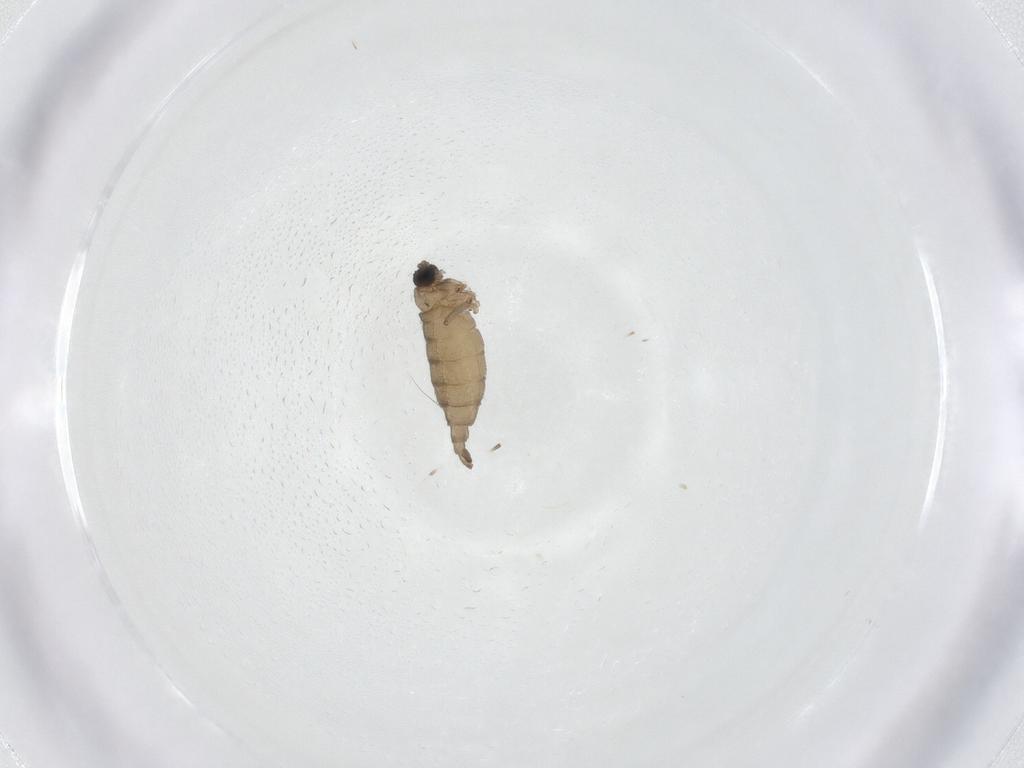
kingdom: Animalia
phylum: Arthropoda
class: Insecta
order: Diptera
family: Sciaridae
